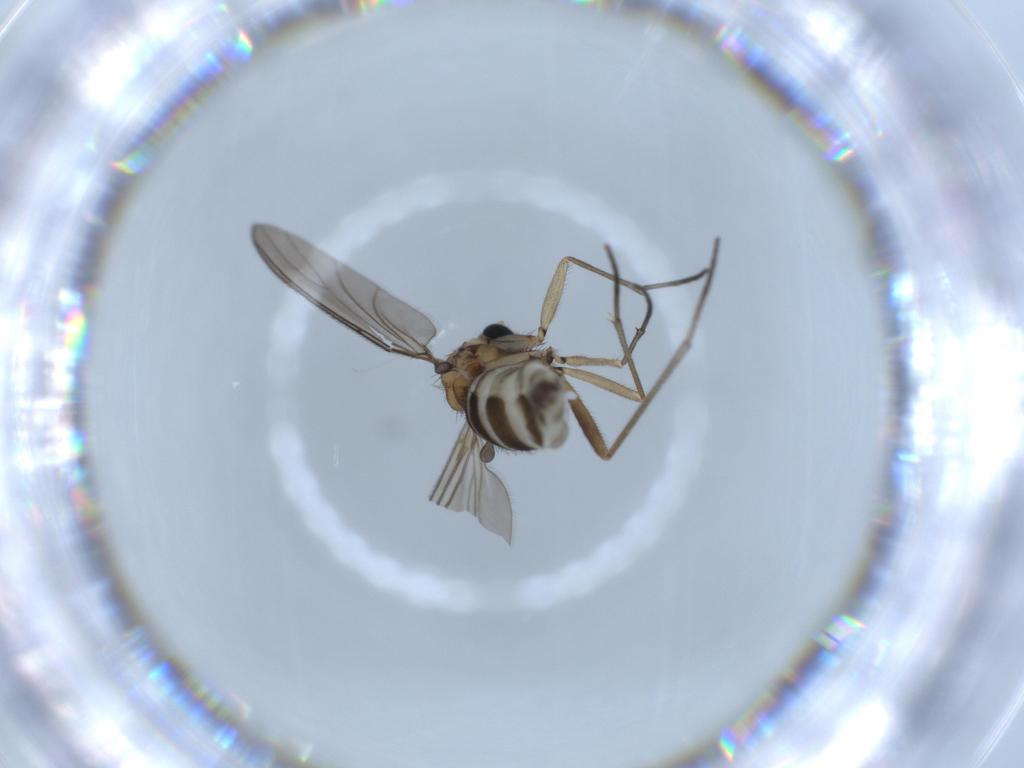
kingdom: Animalia
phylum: Arthropoda
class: Insecta
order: Diptera
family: Sciaridae
